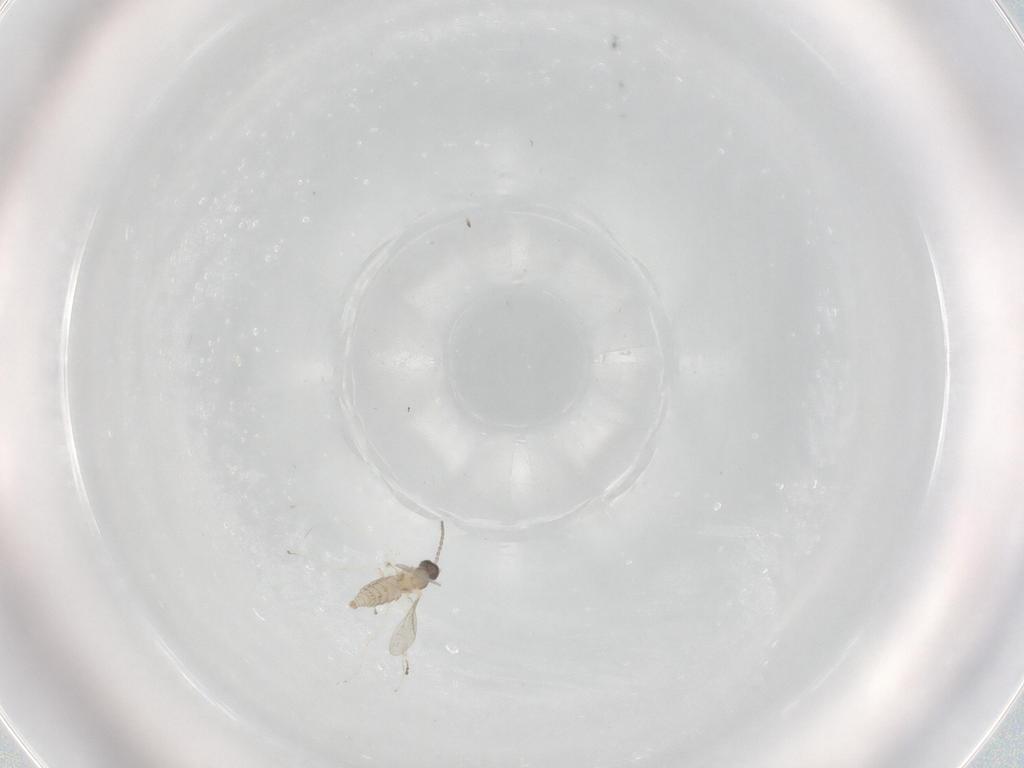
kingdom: Animalia
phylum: Arthropoda
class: Insecta
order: Diptera
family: Cecidomyiidae
